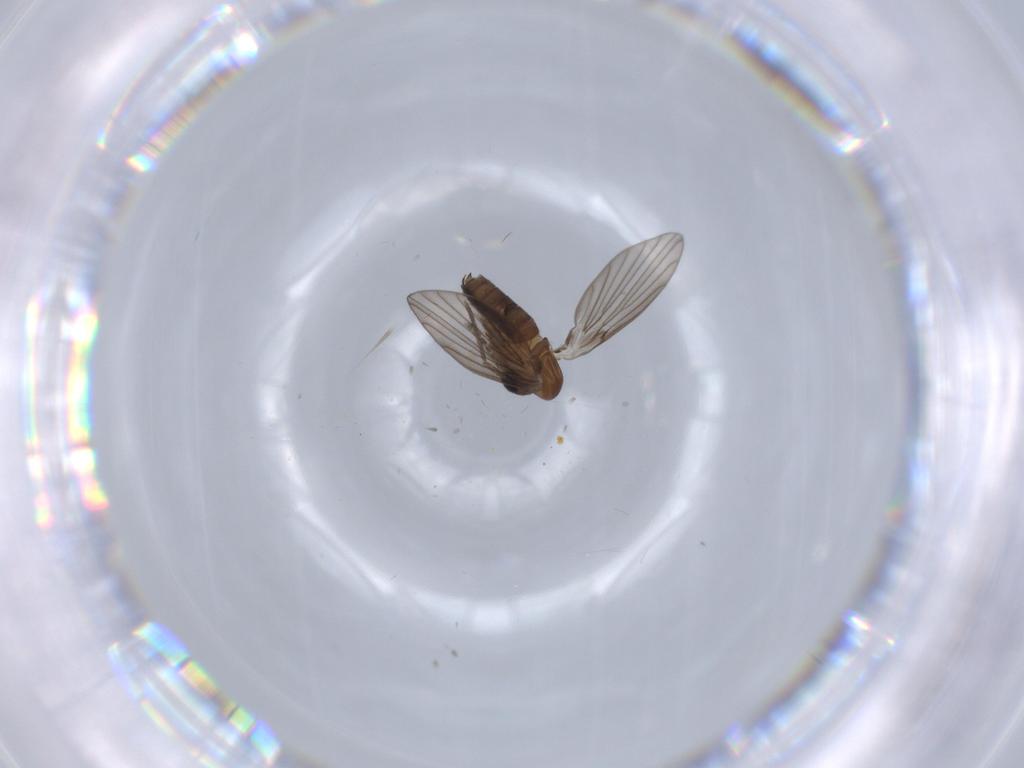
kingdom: Animalia
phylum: Arthropoda
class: Insecta
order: Diptera
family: Psychodidae
